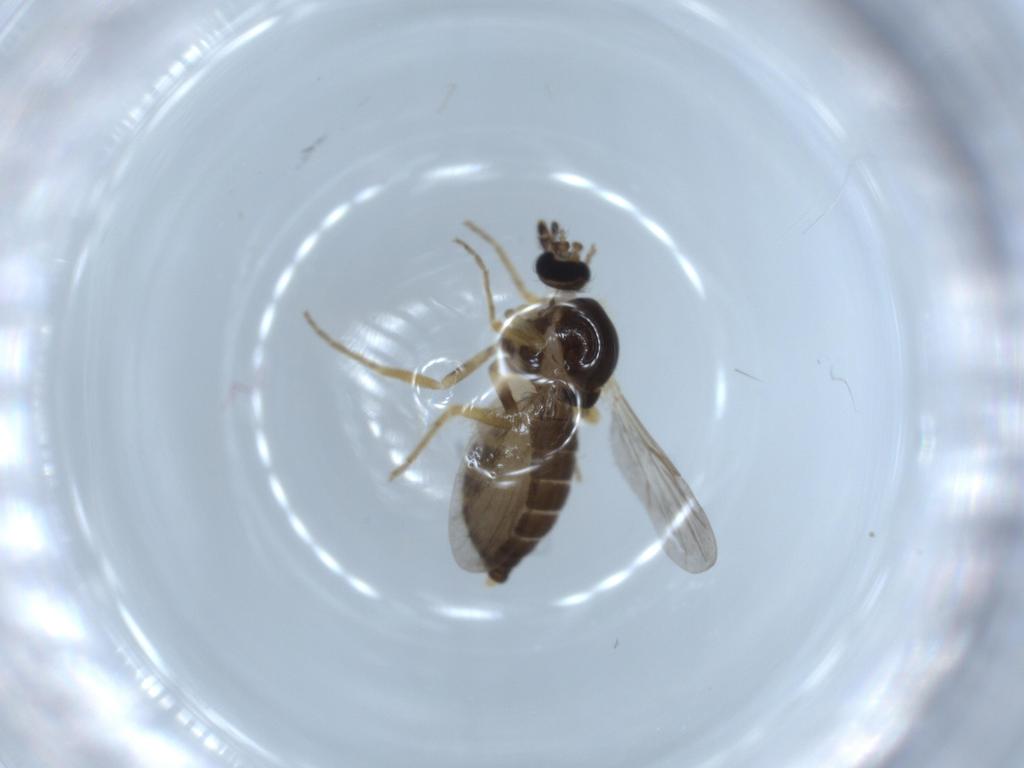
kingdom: Animalia
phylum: Arthropoda
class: Insecta
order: Diptera
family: Ceratopogonidae
